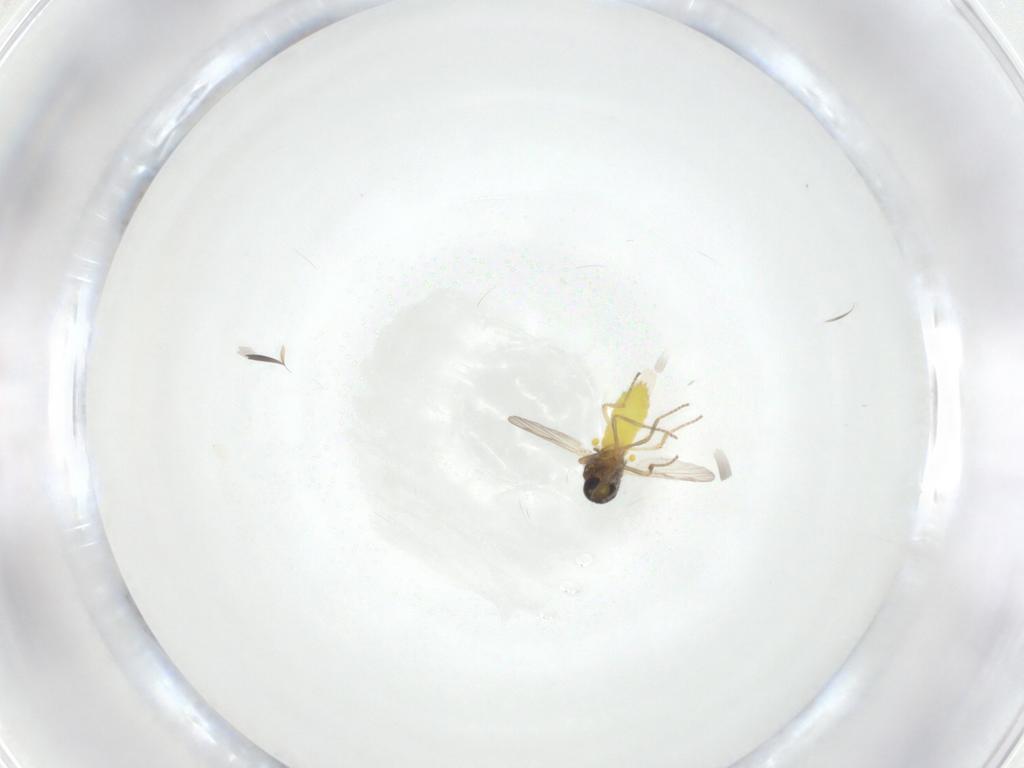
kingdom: Animalia
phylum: Arthropoda
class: Insecta
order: Diptera
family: Ceratopogonidae
